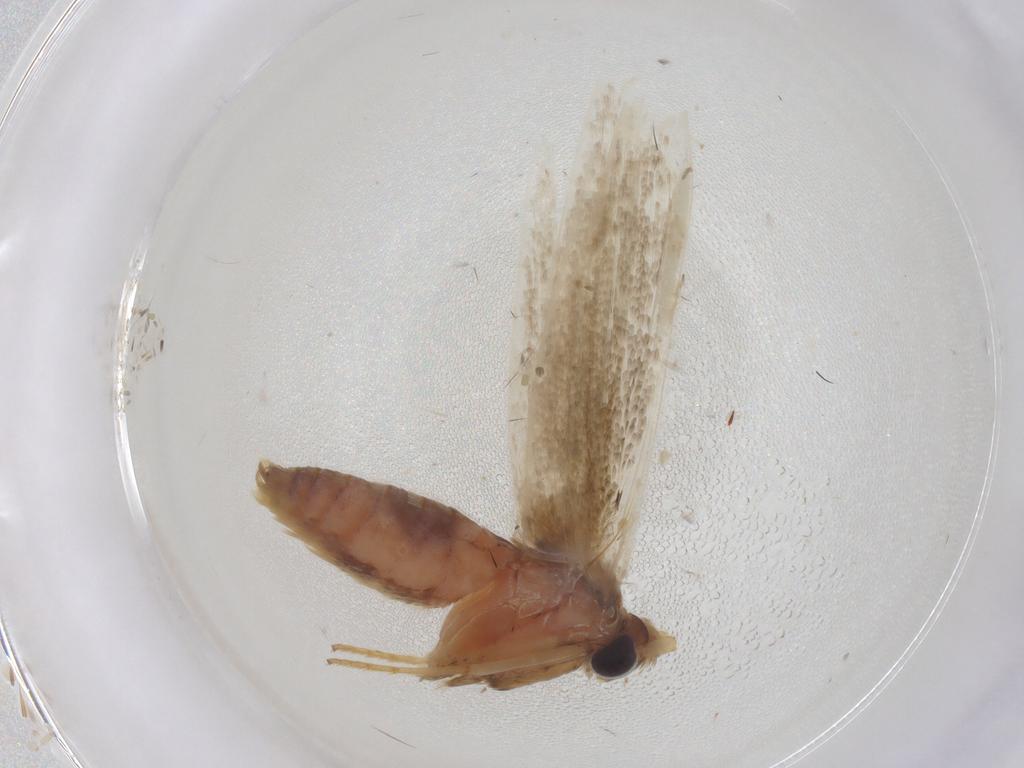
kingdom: Animalia
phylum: Arthropoda
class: Insecta
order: Lepidoptera
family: Blastobasidae
